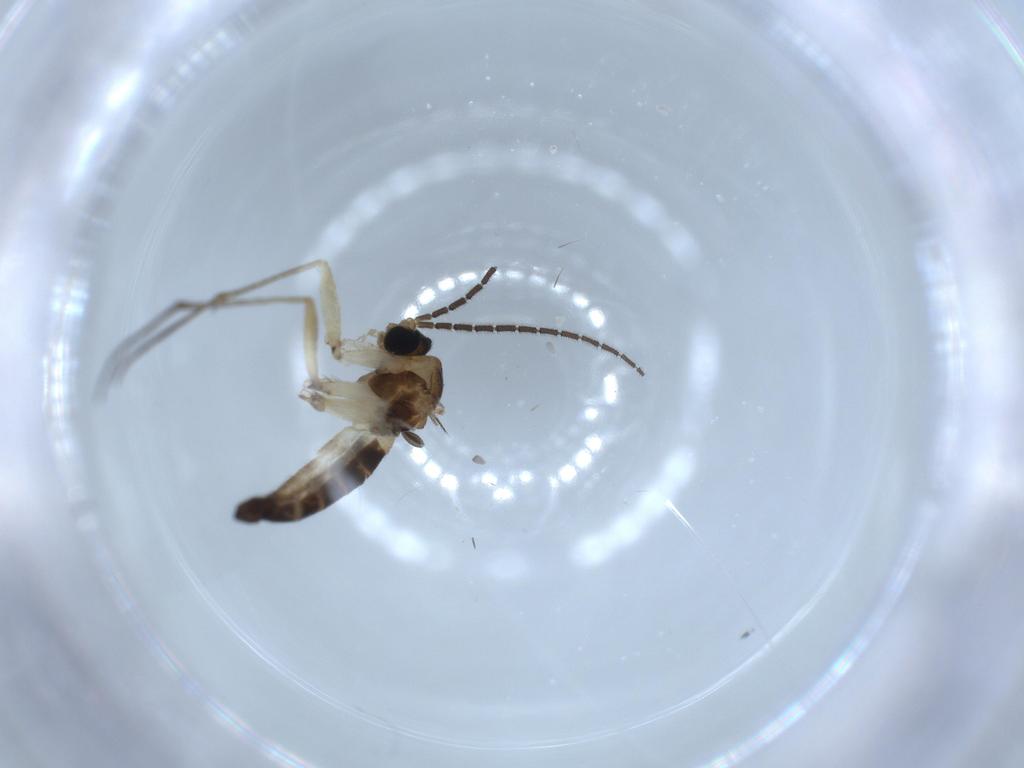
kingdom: Animalia
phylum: Arthropoda
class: Insecta
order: Diptera
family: Sciaridae
